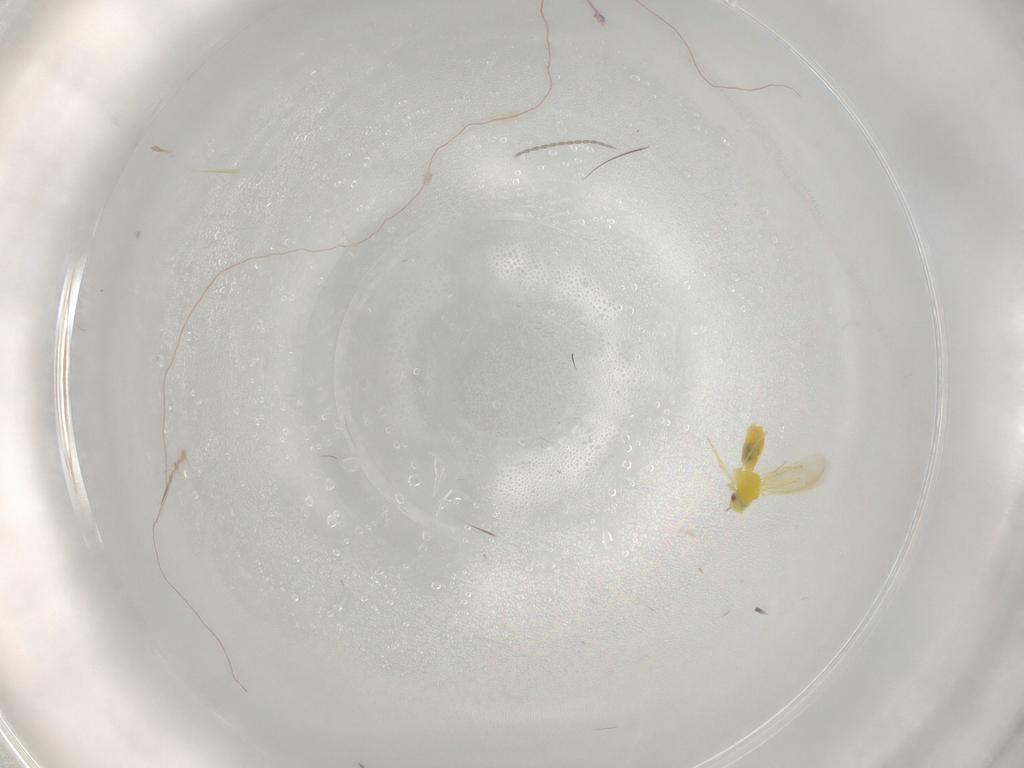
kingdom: Animalia
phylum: Arthropoda
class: Insecta
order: Hemiptera
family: Aleyrodidae
